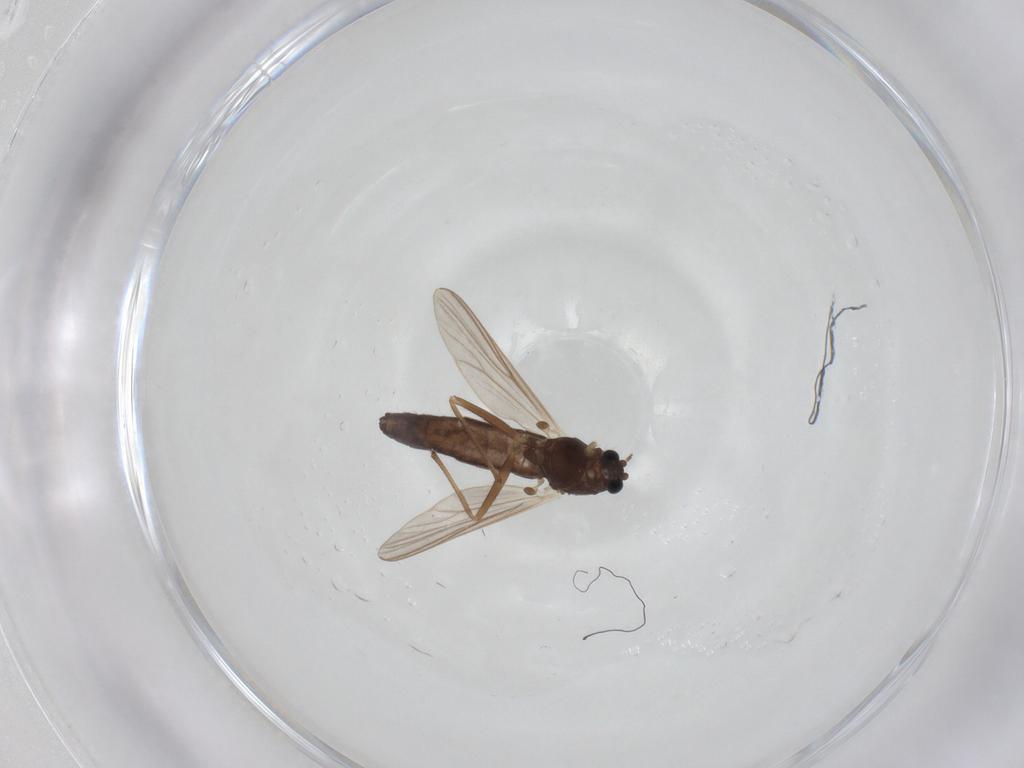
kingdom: Animalia
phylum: Arthropoda
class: Insecta
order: Diptera
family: Chironomidae
